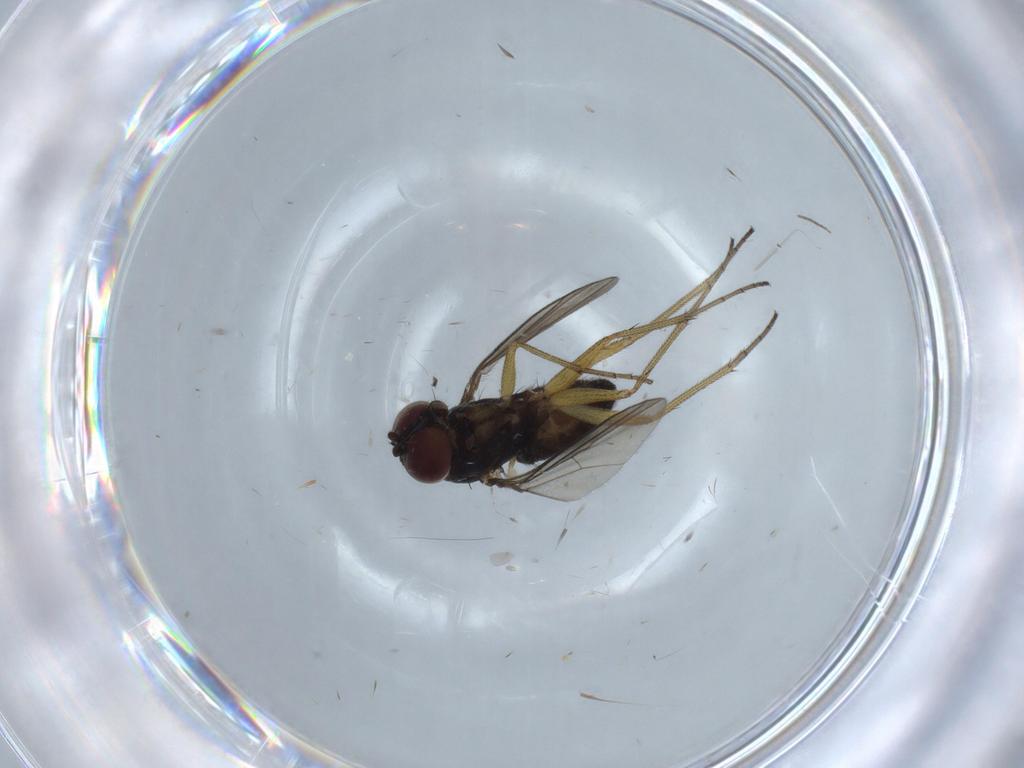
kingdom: Animalia
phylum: Arthropoda
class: Insecta
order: Diptera
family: Dolichopodidae
